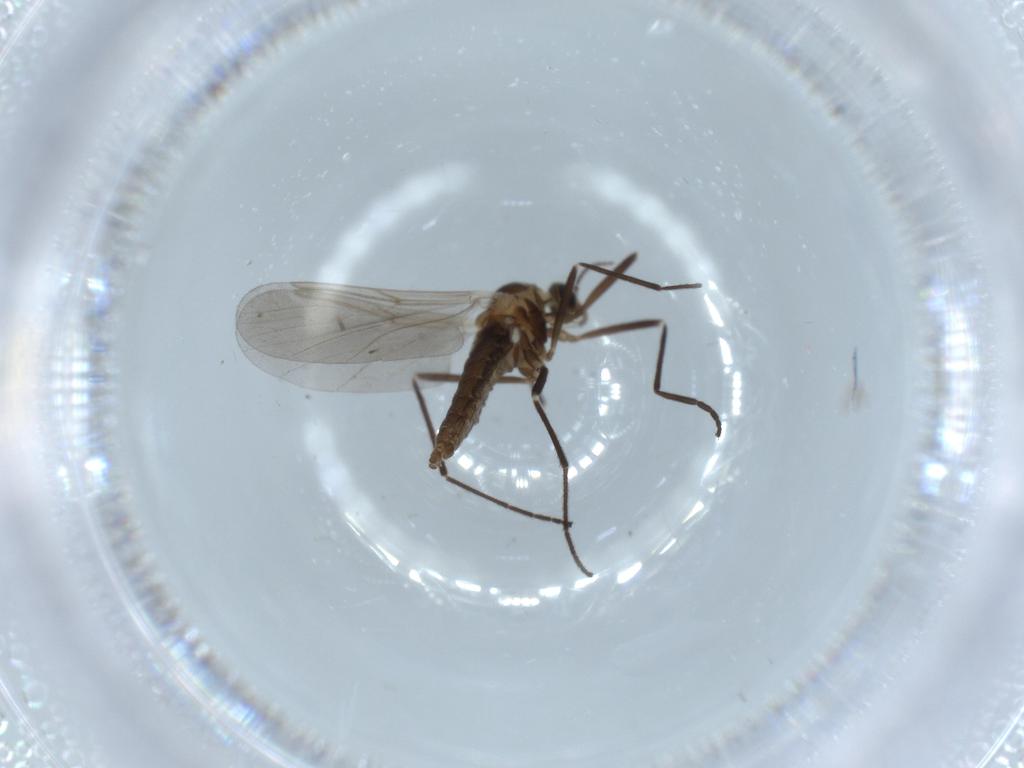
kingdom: Animalia
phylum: Arthropoda
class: Insecta
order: Diptera
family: Cecidomyiidae
